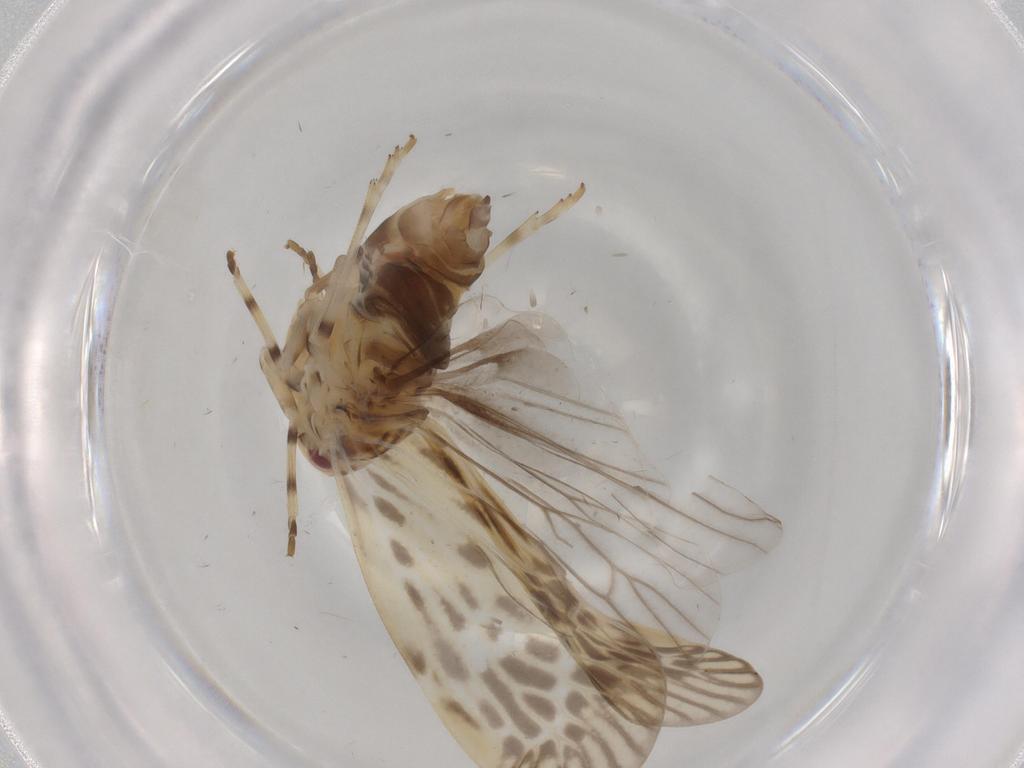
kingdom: Animalia
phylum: Arthropoda
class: Insecta
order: Hemiptera
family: Derbidae
